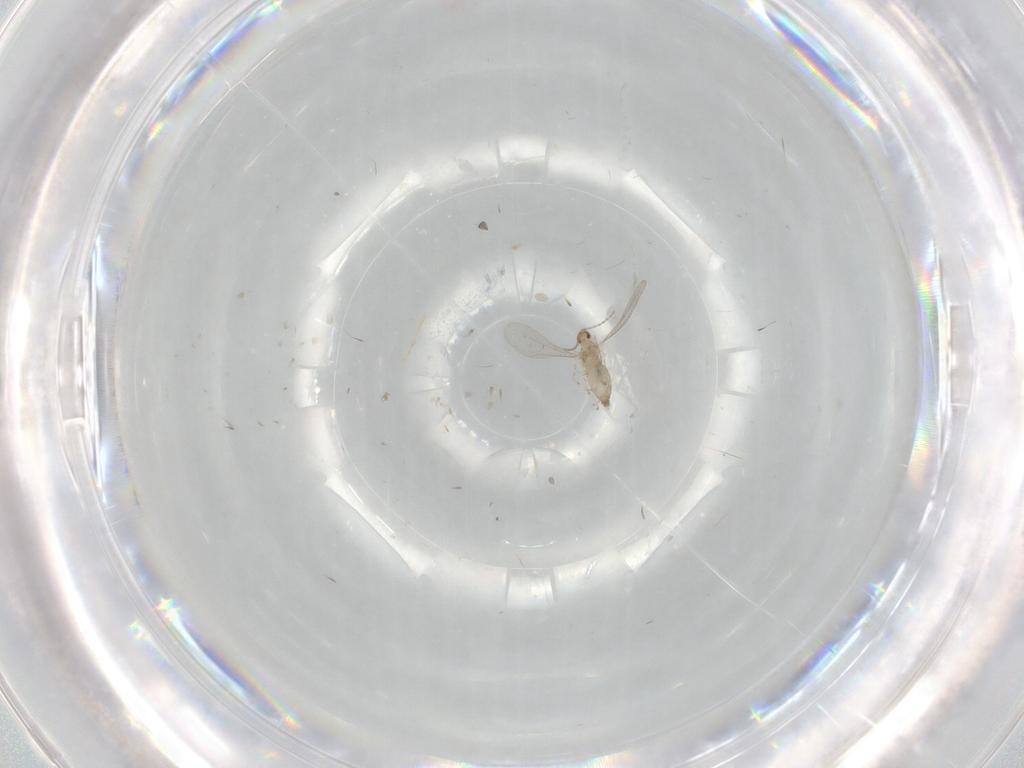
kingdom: Animalia
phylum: Arthropoda
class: Insecta
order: Diptera
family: Cecidomyiidae
